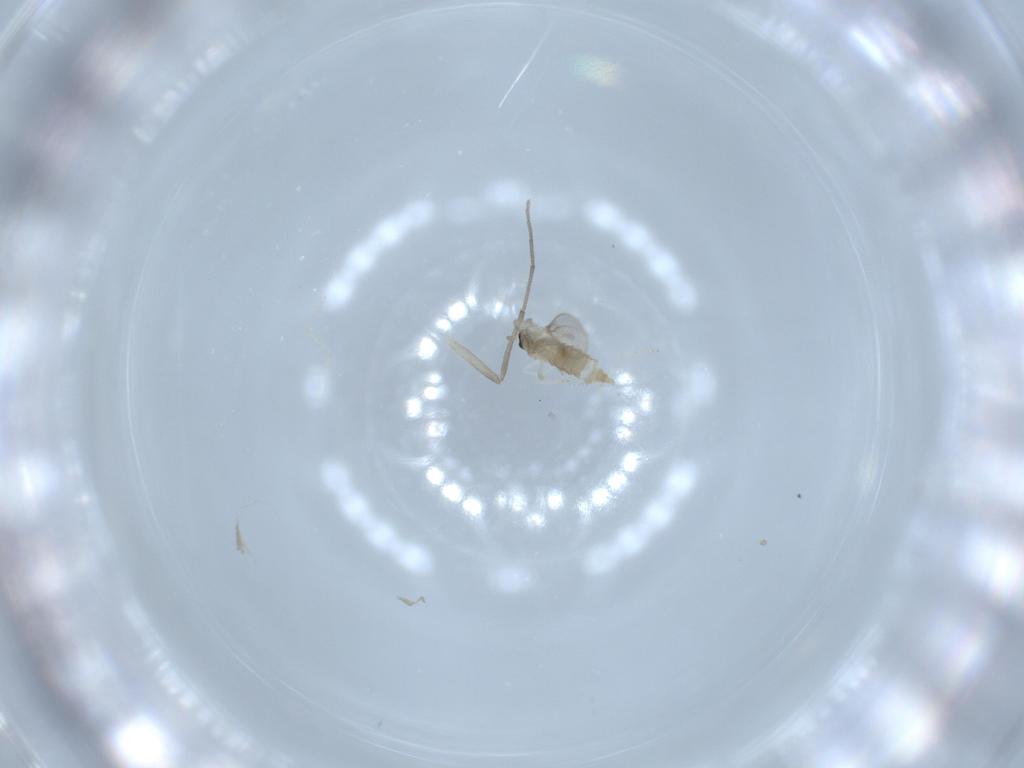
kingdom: Animalia
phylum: Arthropoda
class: Insecta
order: Diptera
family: Cecidomyiidae
